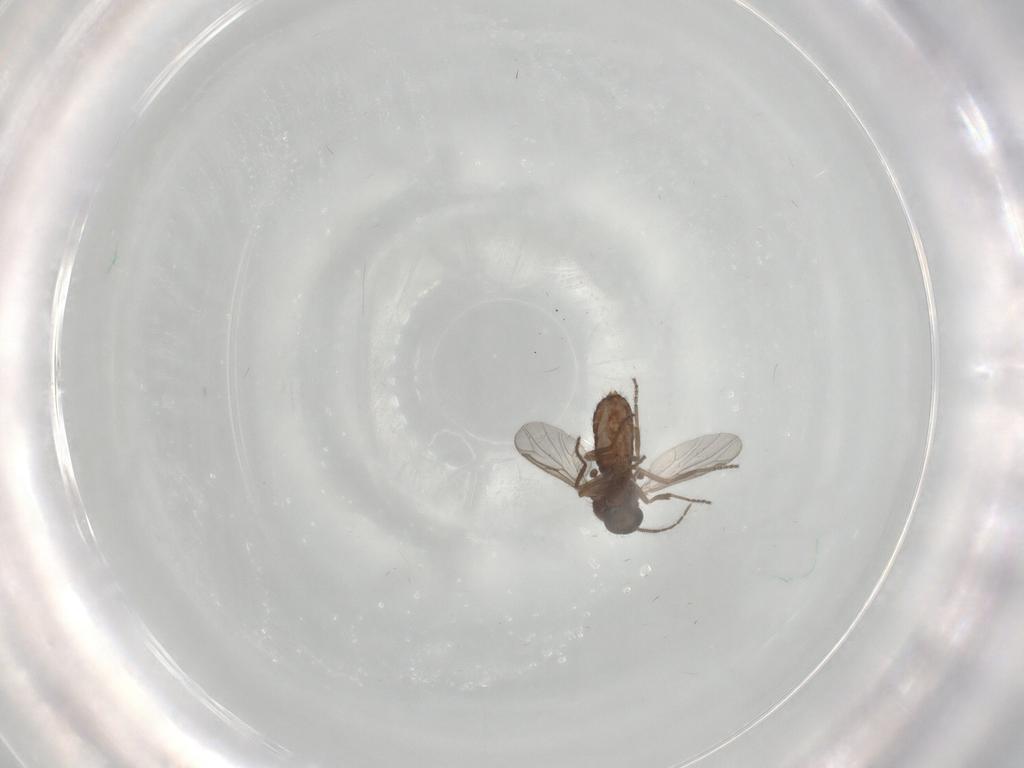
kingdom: Animalia
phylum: Arthropoda
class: Insecta
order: Diptera
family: Ceratopogonidae
